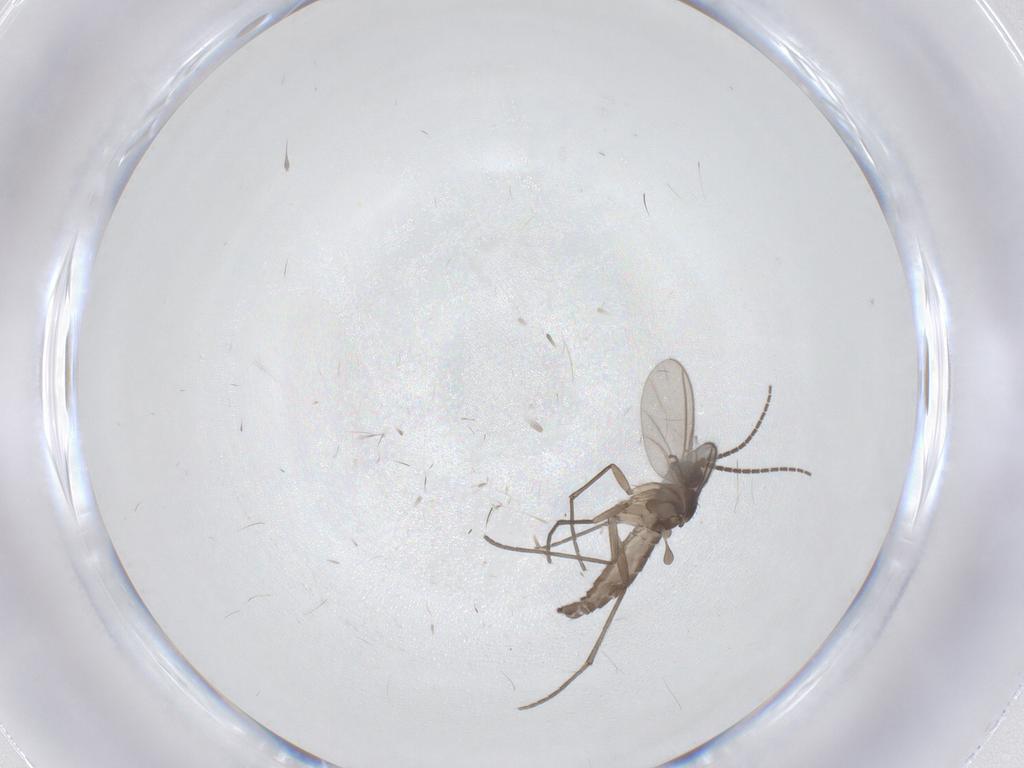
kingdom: Animalia
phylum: Arthropoda
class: Insecta
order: Diptera
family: Sciaridae
